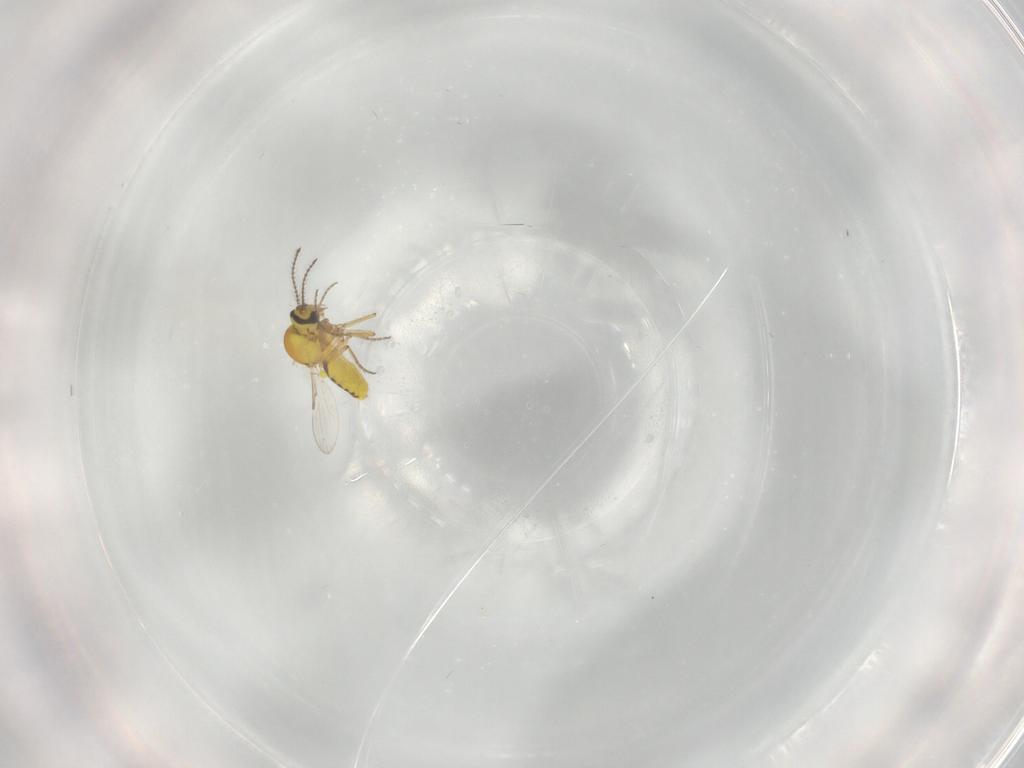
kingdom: Animalia
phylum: Arthropoda
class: Insecta
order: Diptera
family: Ceratopogonidae
